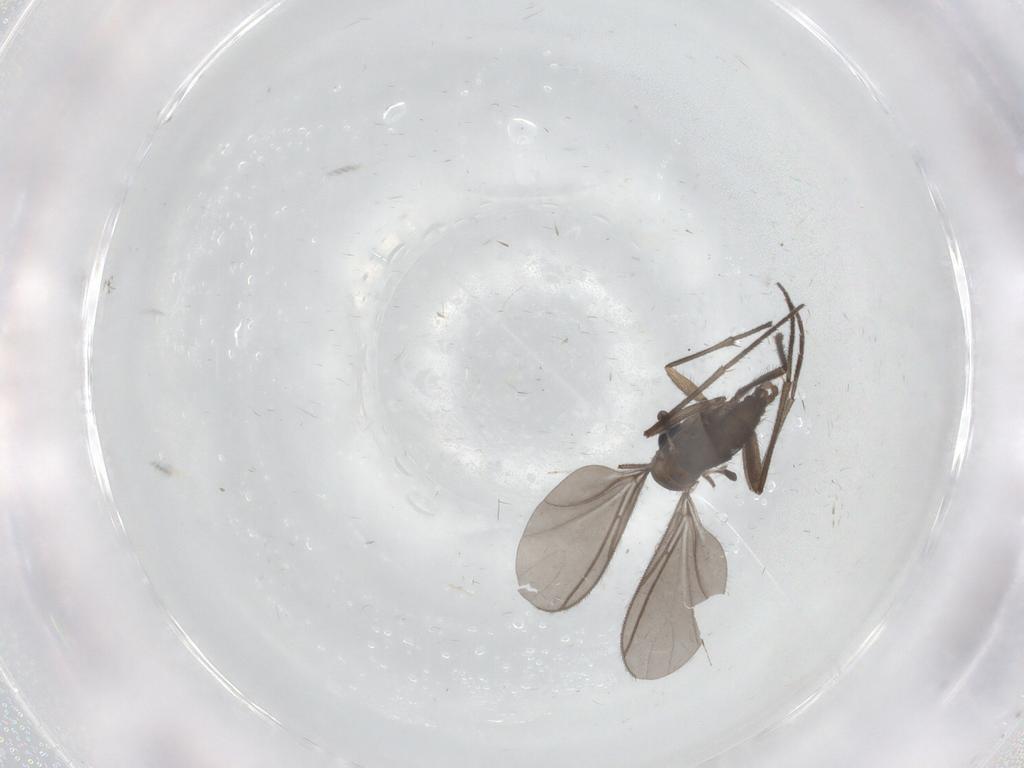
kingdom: Animalia
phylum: Arthropoda
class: Insecta
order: Diptera
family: Sciaridae
